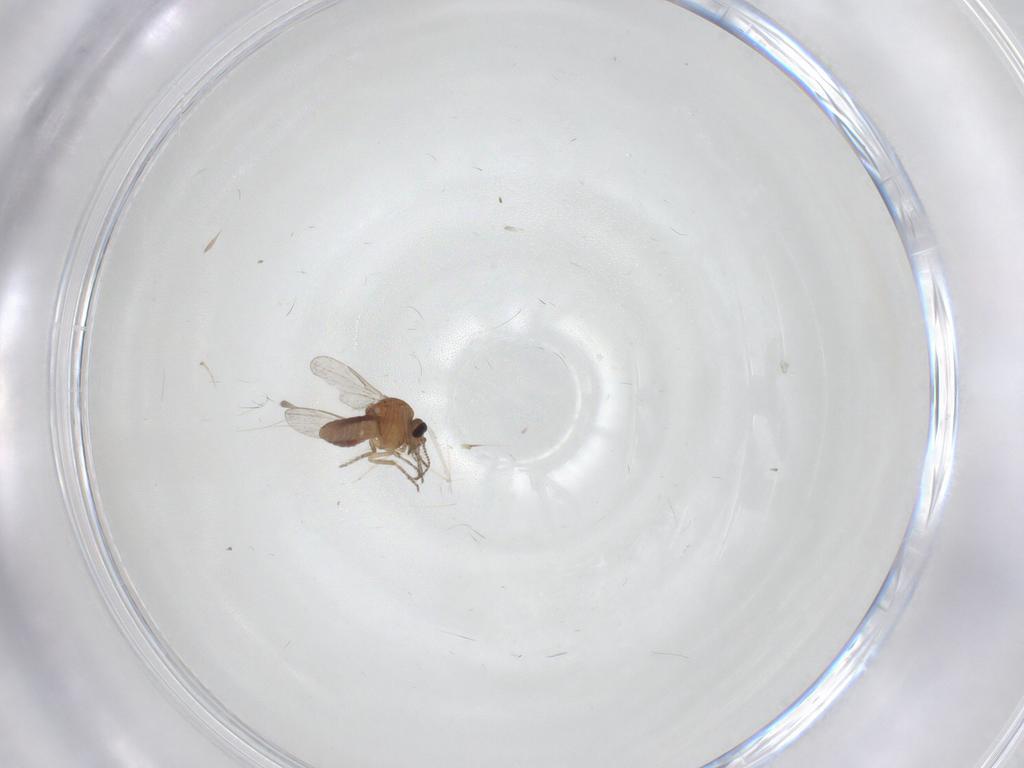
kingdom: Animalia
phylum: Arthropoda
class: Insecta
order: Diptera
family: Ceratopogonidae
